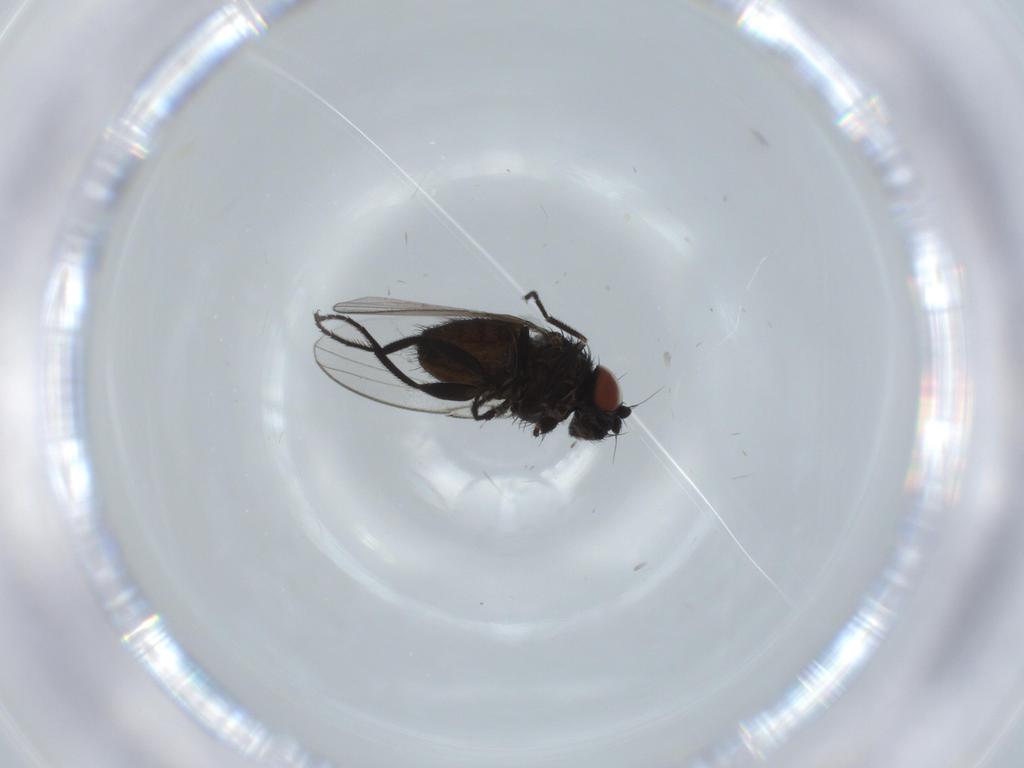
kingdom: Animalia
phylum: Arthropoda
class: Insecta
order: Diptera
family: Milichiidae
